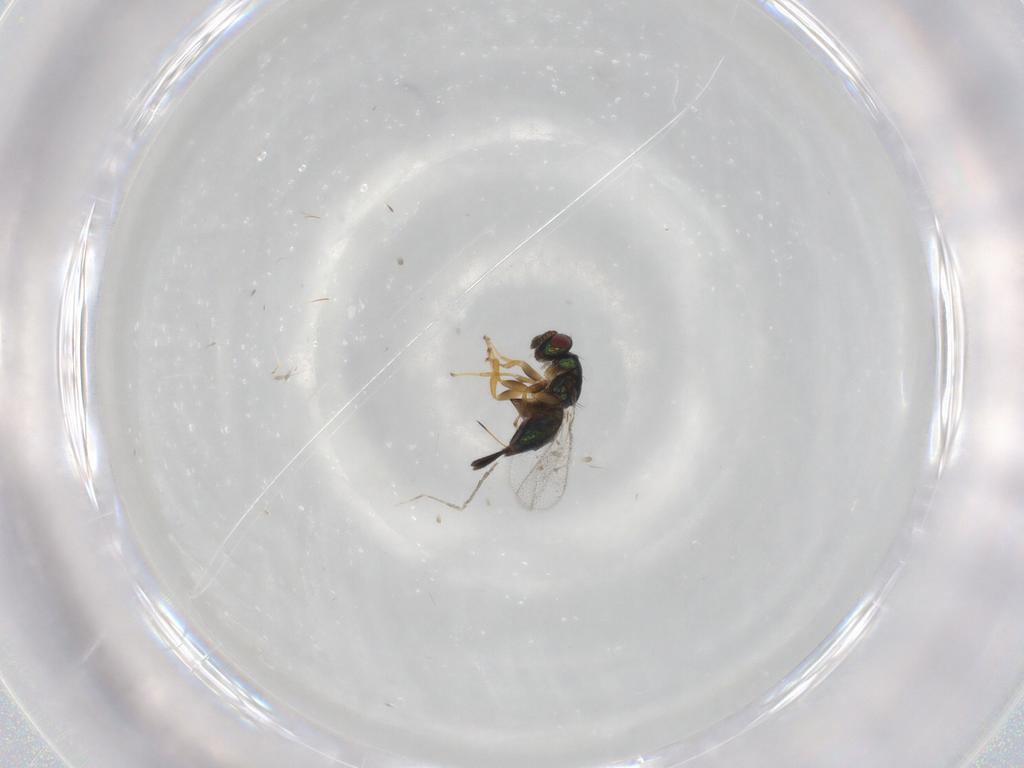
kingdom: Animalia
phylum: Arthropoda
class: Insecta
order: Hymenoptera
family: Torymidae
